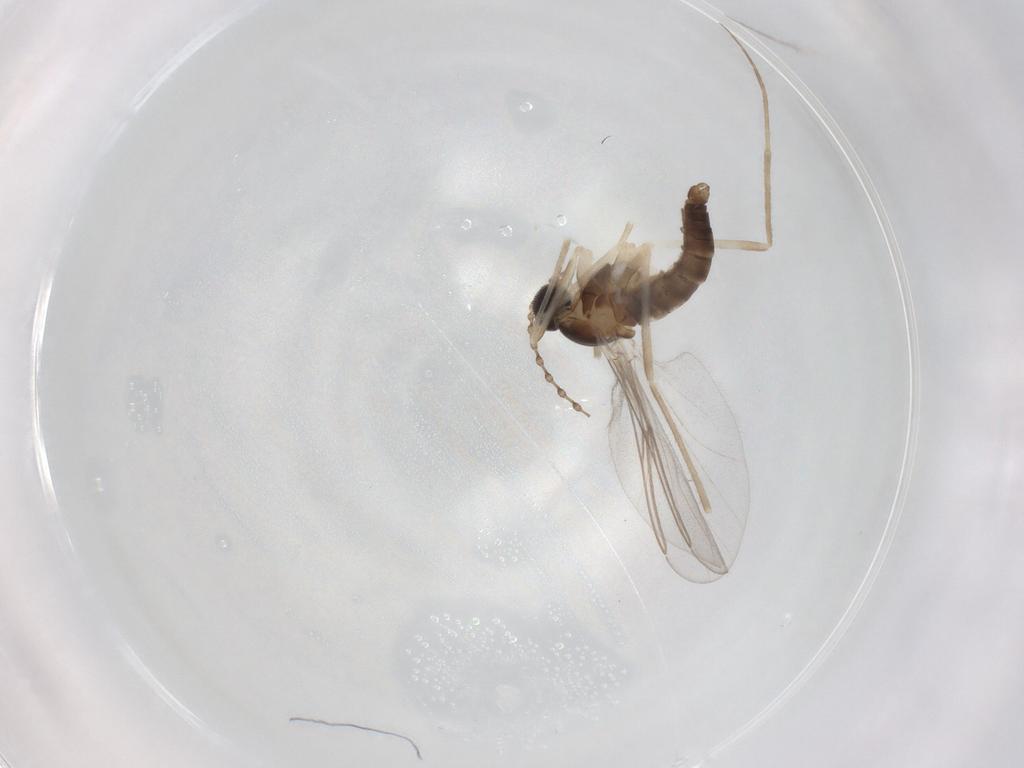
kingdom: Animalia
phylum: Arthropoda
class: Insecta
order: Diptera
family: Cecidomyiidae
